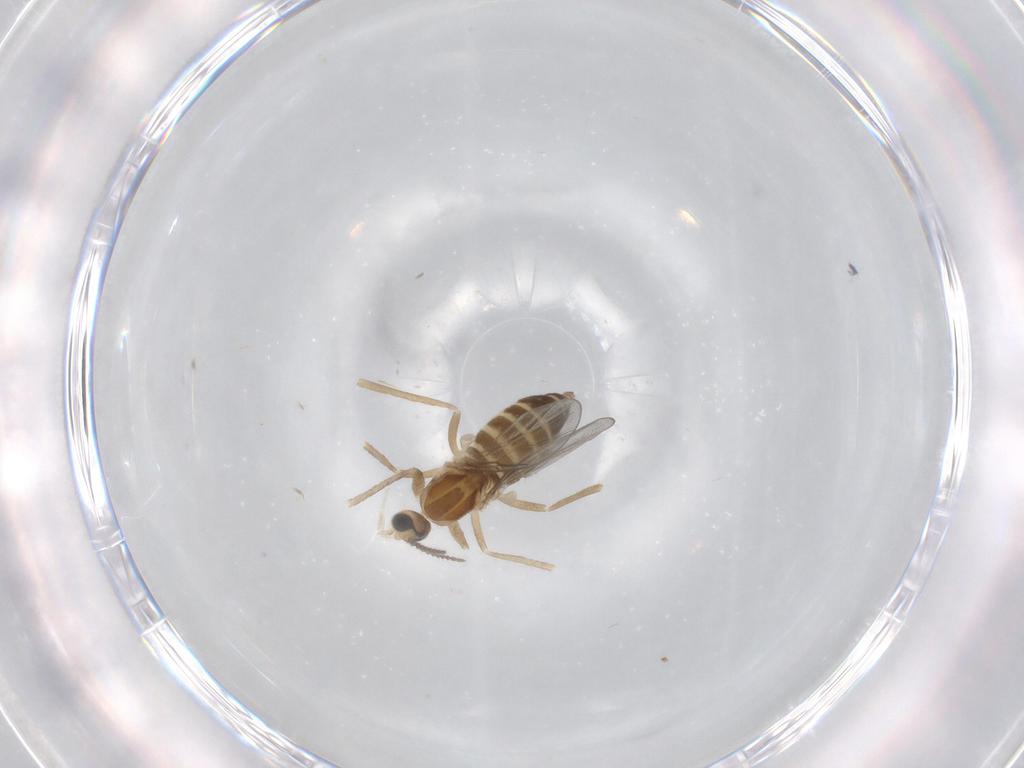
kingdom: Animalia
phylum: Arthropoda
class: Insecta
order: Diptera
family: Cecidomyiidae
